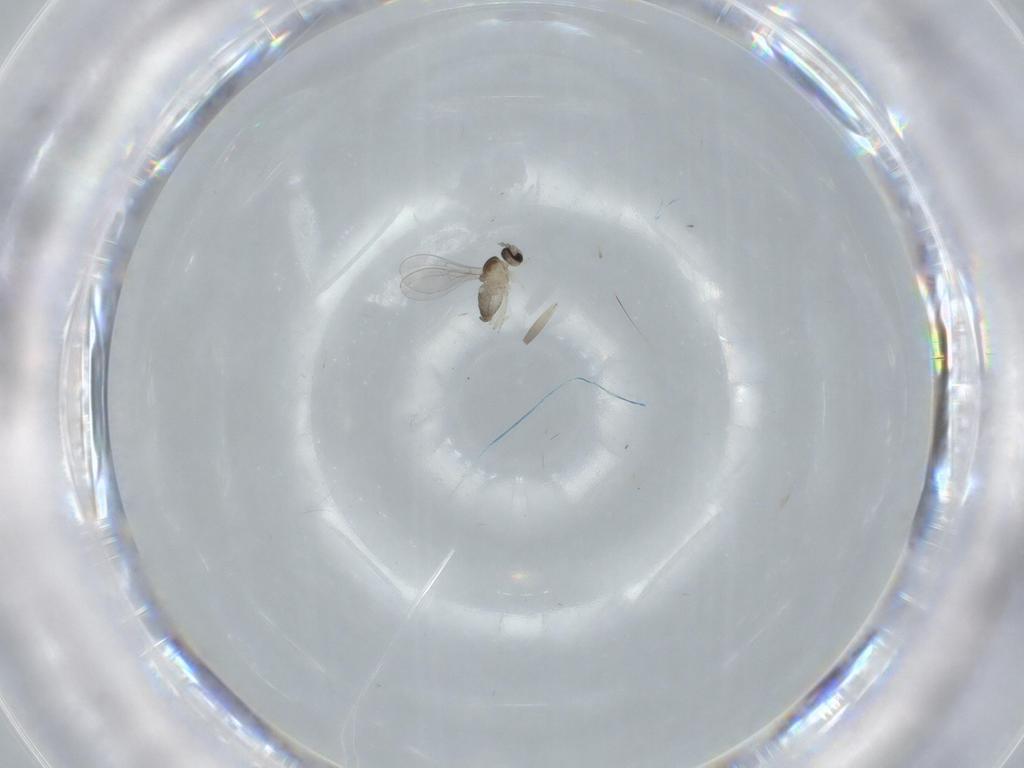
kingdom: Animalia
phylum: Arthropoda
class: Insecta
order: Diptera
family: Cecidomyiidae
